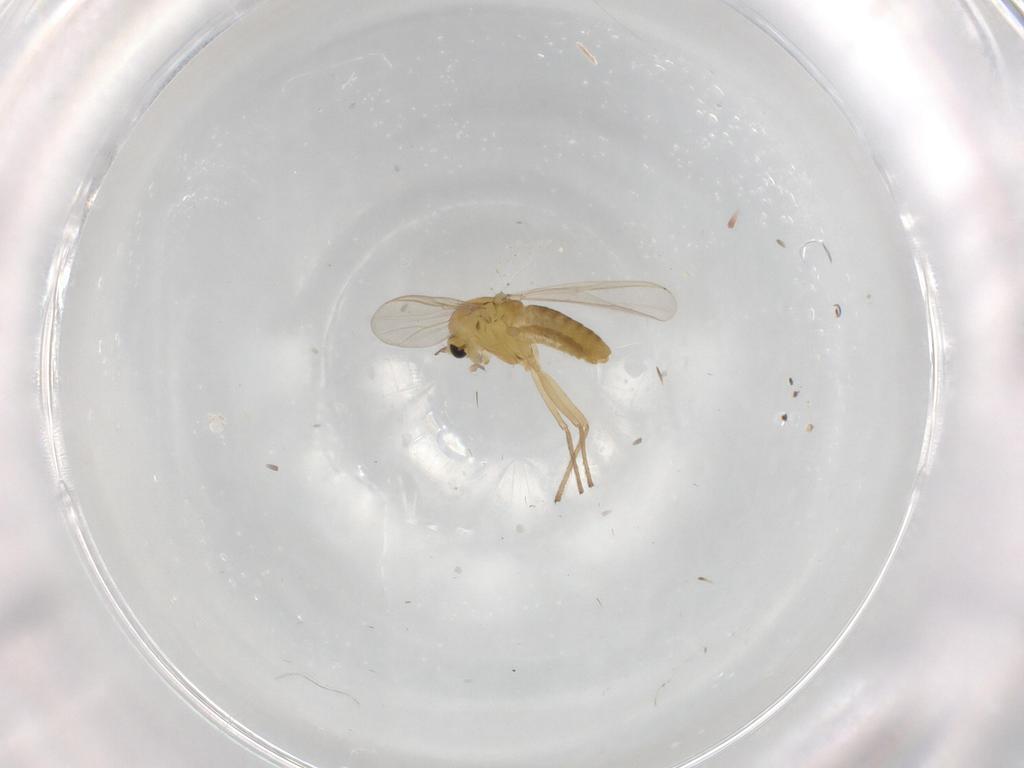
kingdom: Animalia
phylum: Arthropoda
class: Insecta
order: Diptera
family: Chironomidae
